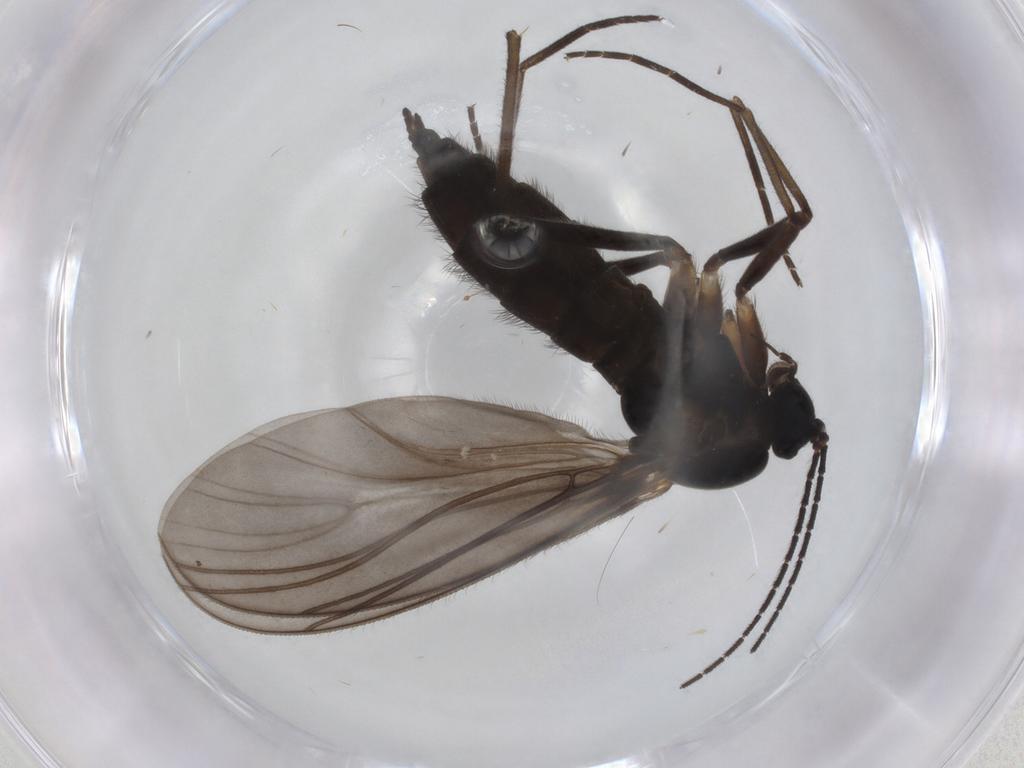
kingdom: Animalia
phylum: Arthropoda
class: Insecta
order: Diptera
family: Sciaridae
